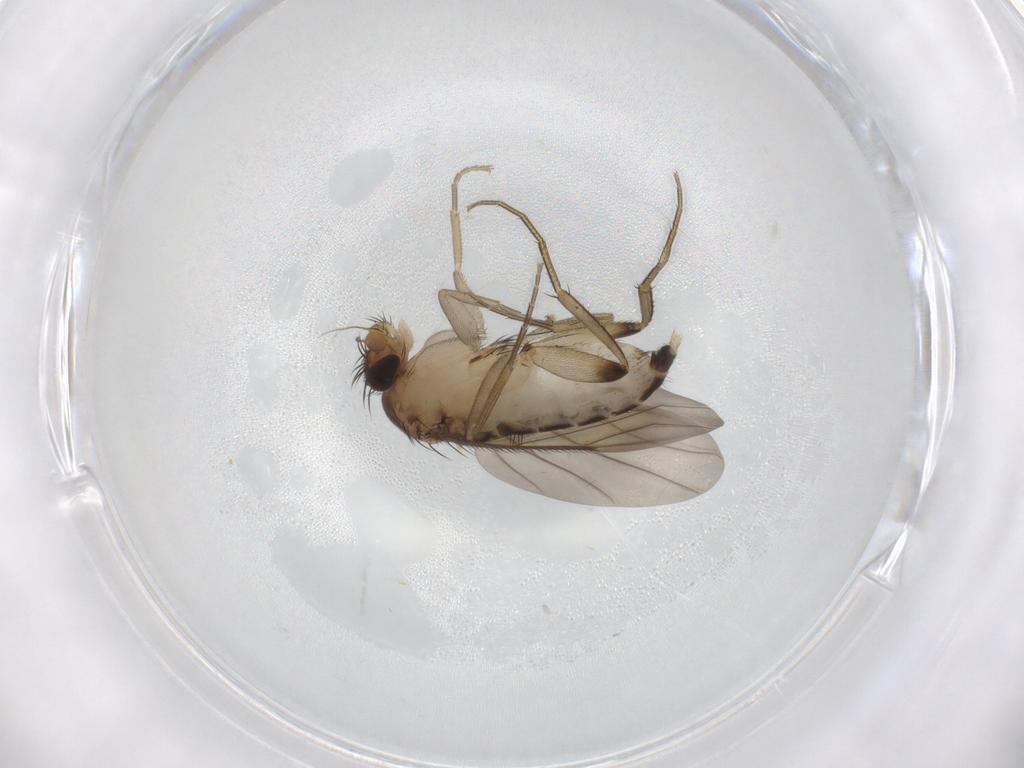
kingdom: Animalia
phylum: Arthropoda
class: Insecta
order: Diptera
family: Phoridae
